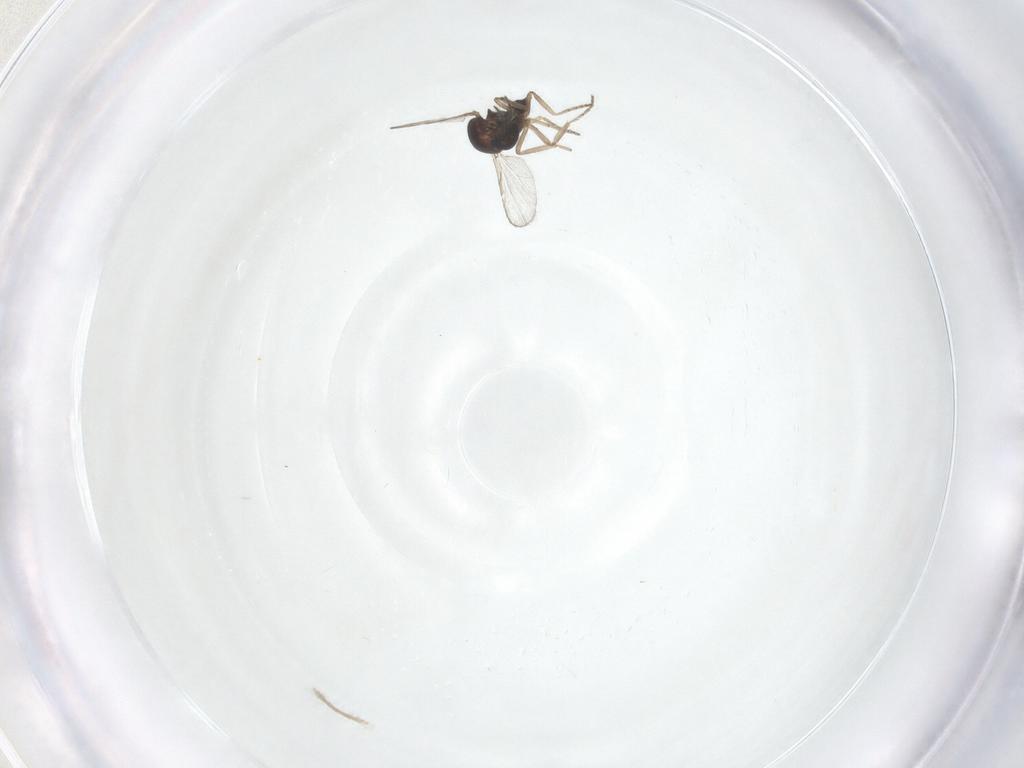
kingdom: Animalia
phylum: Arthropoda
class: Insecta
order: Diptera
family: Ceratopogonidae
